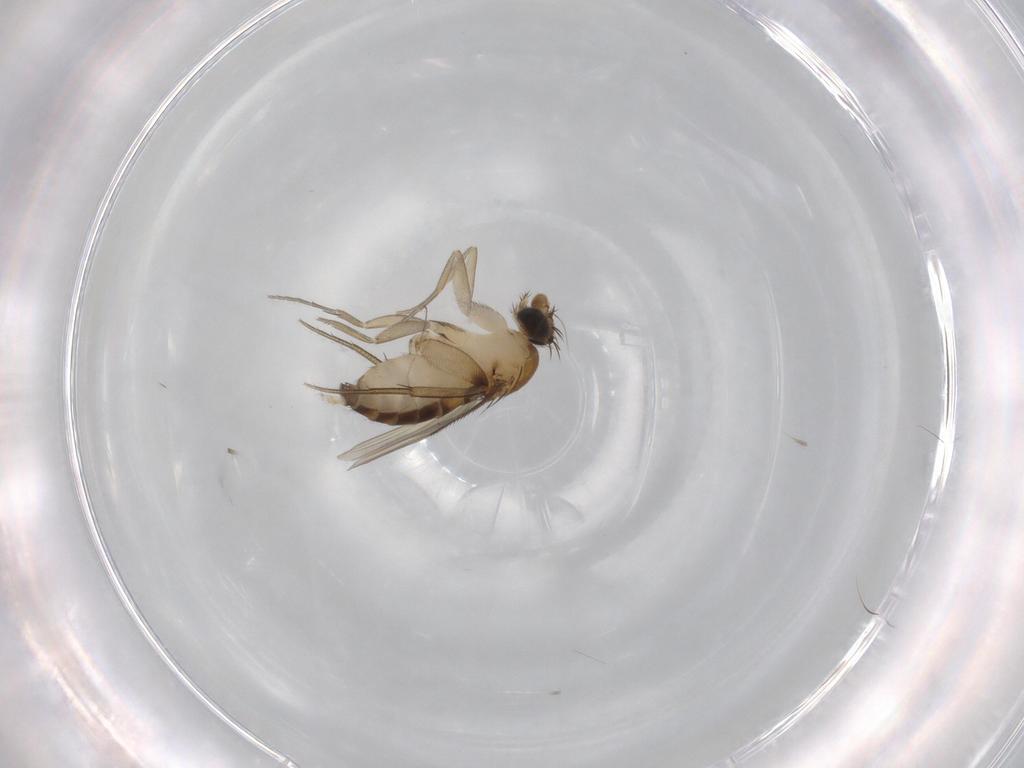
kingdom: Animalia
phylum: Arthropoda
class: Insecta
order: Diptera
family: Phoridae
